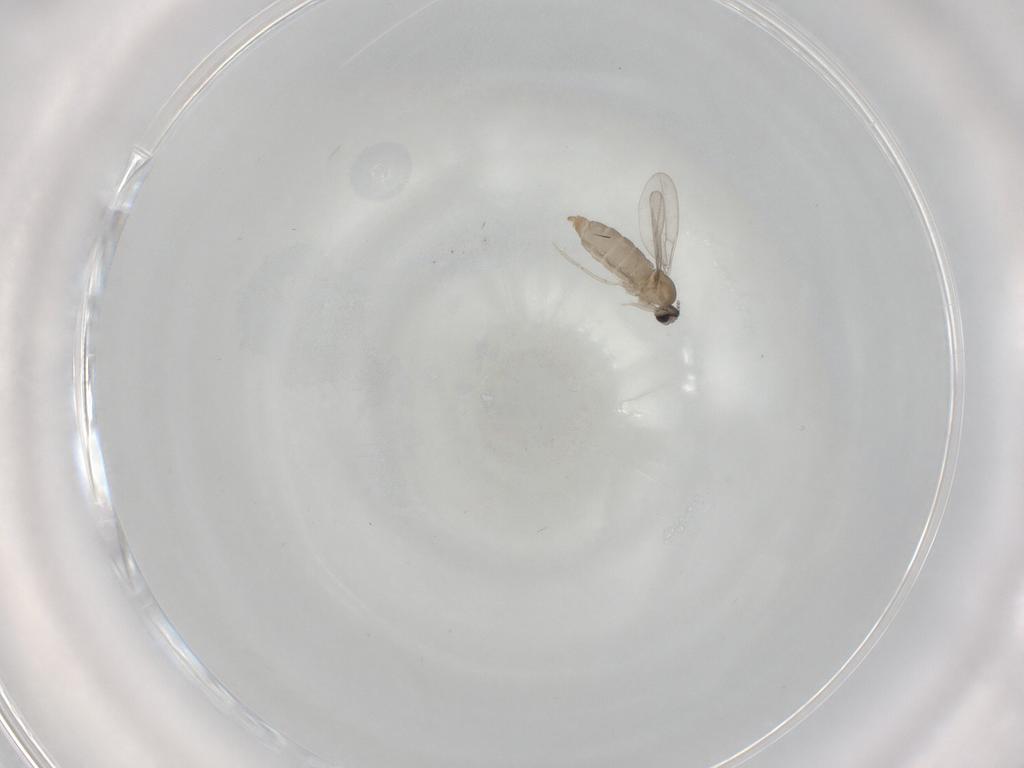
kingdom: Animalia
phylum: Arthropoda
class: Insecta
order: Diptera
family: Cecidomyiidae
